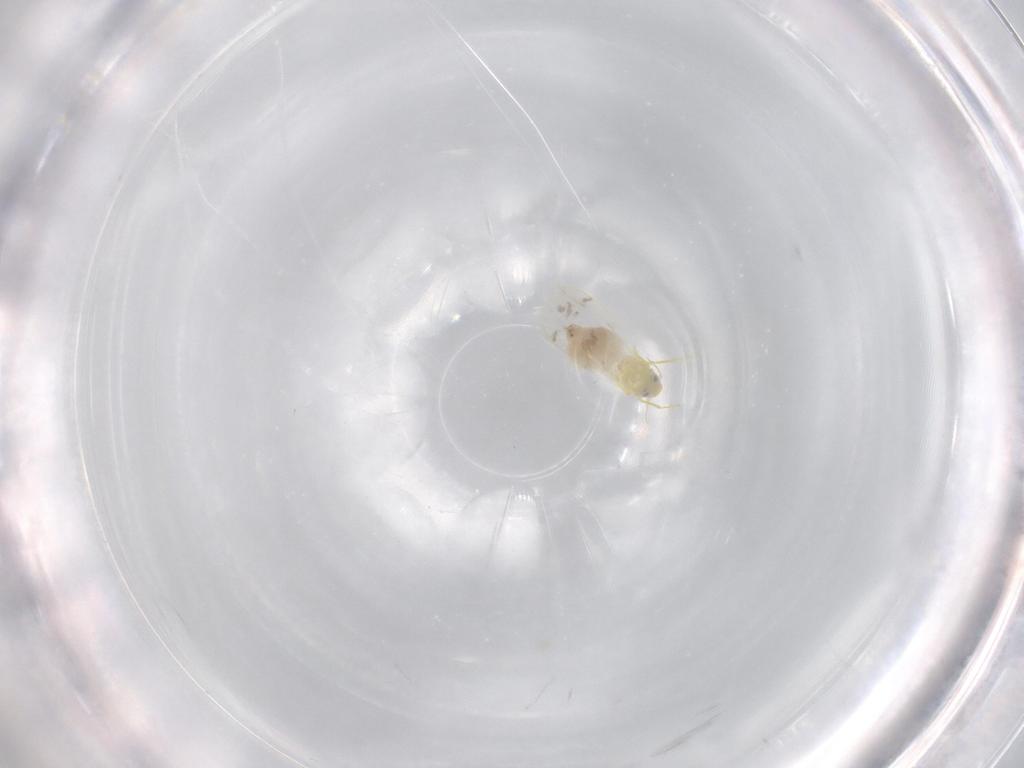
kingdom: Animalia
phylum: Arthropoda
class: Insecta
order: Hemiptera
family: Aleyrodidae
